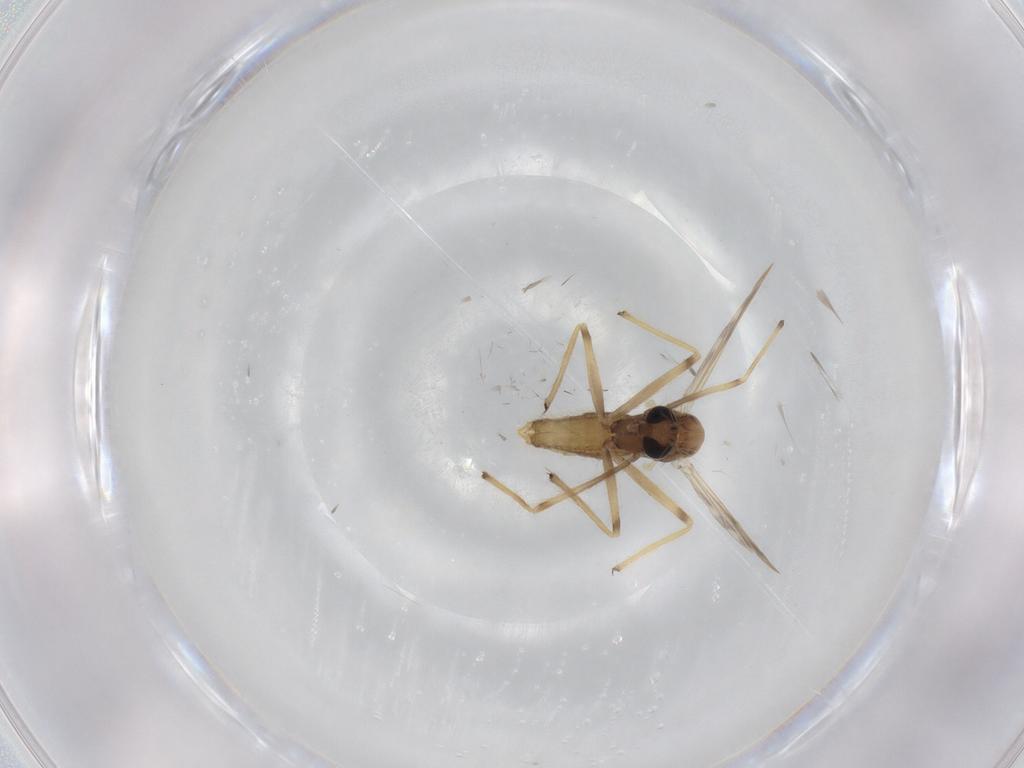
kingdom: Animalia
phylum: Arthropoda
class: Insecta
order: Diptera
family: Chironomidae
